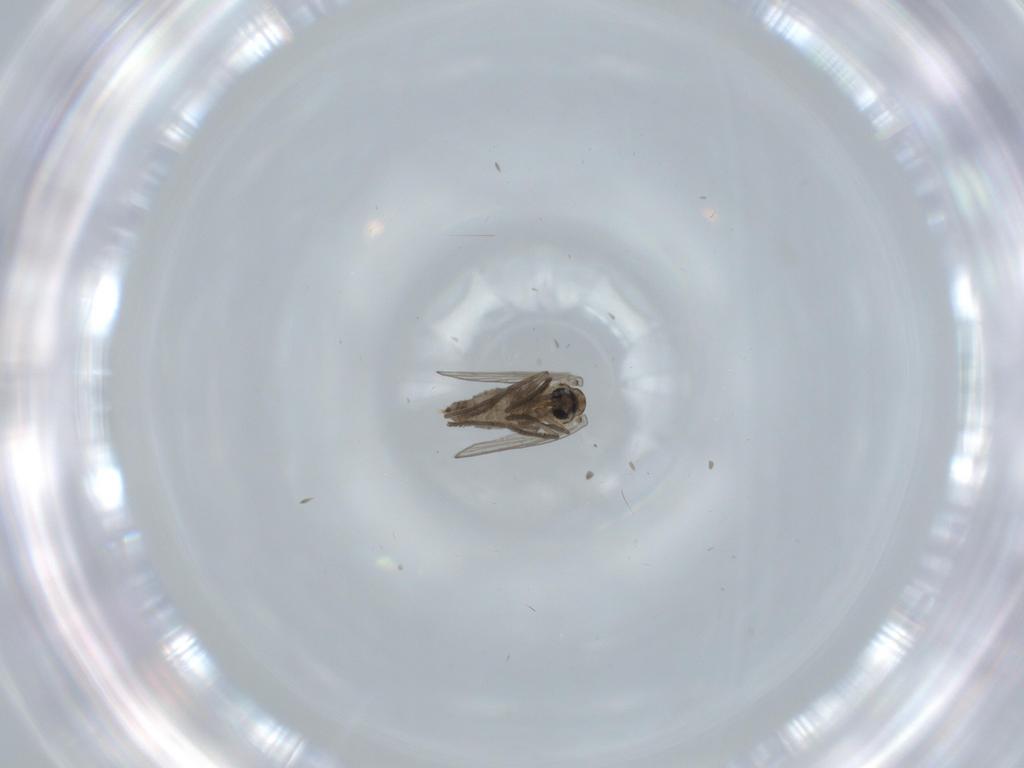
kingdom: Animalia
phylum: Arthropoda
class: Insecta
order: Diptera
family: Psychodidae
